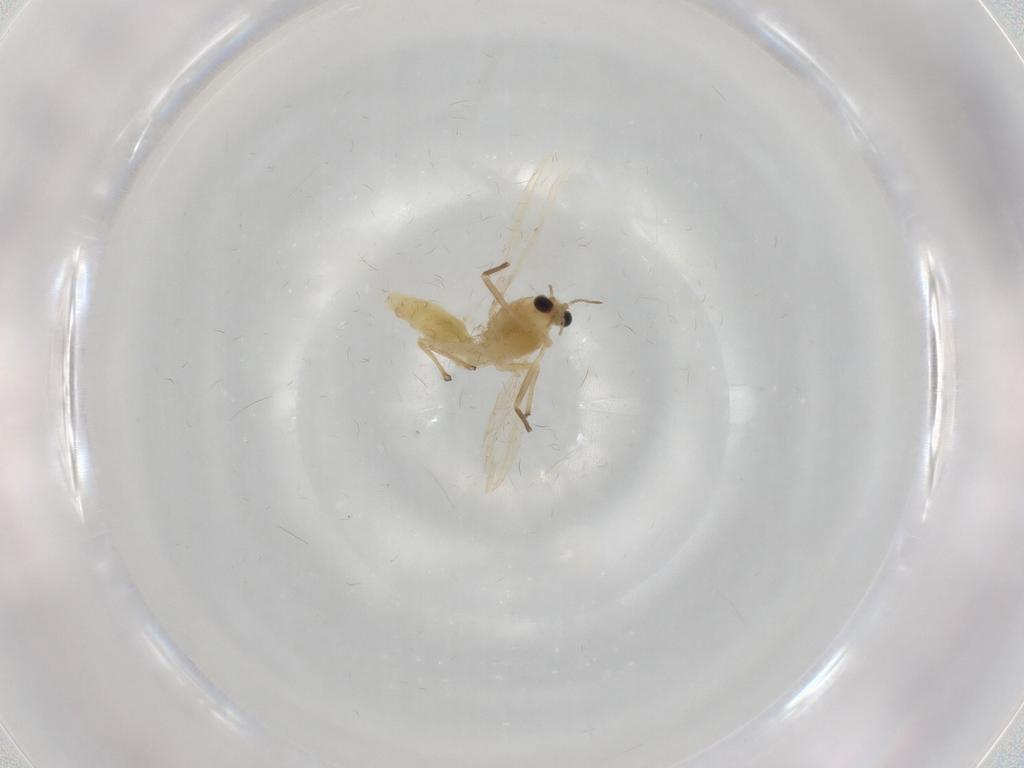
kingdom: Animalia
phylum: Arthropoda
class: Insecta
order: Diptera
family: Chironomidae
